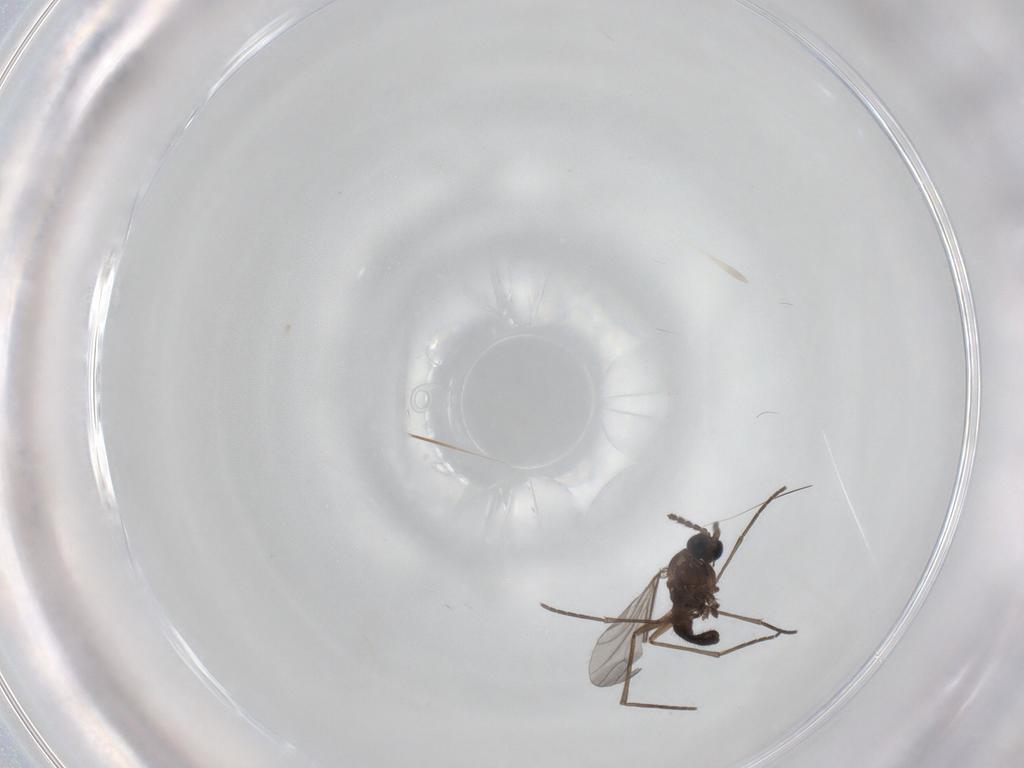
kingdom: Animalia
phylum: Arthropoda
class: Insecta
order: Diptera
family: Sciaridae
